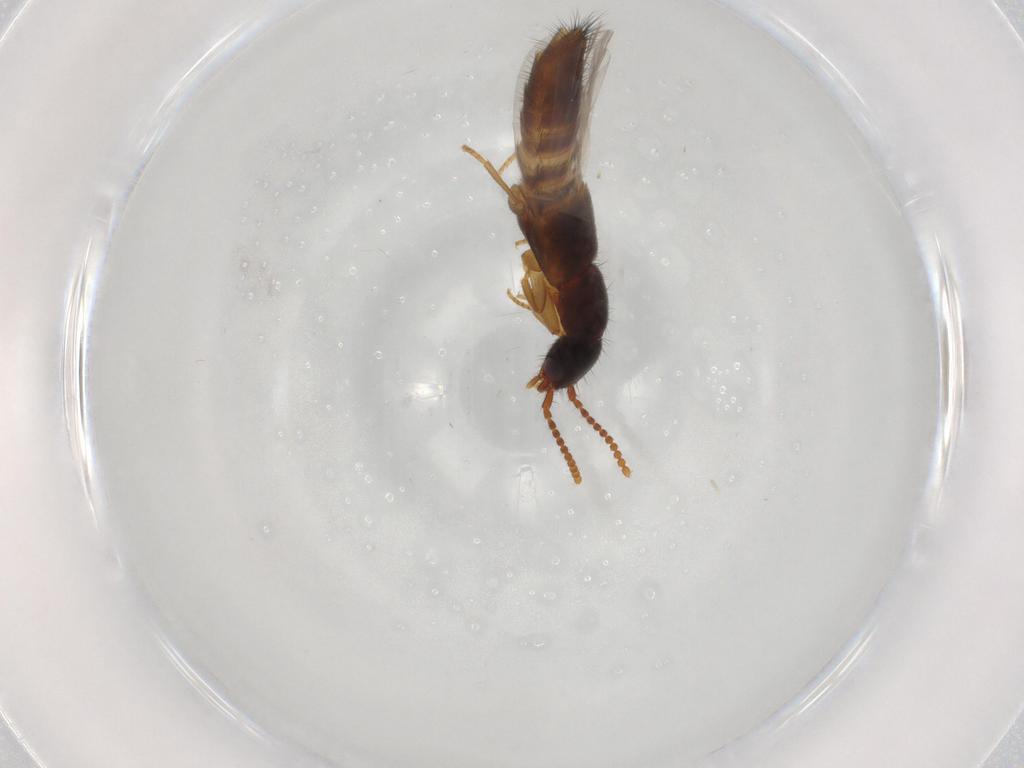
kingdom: Animalia
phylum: Arthropoda
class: Insecta
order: Coleoptera
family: Staphylinidae
